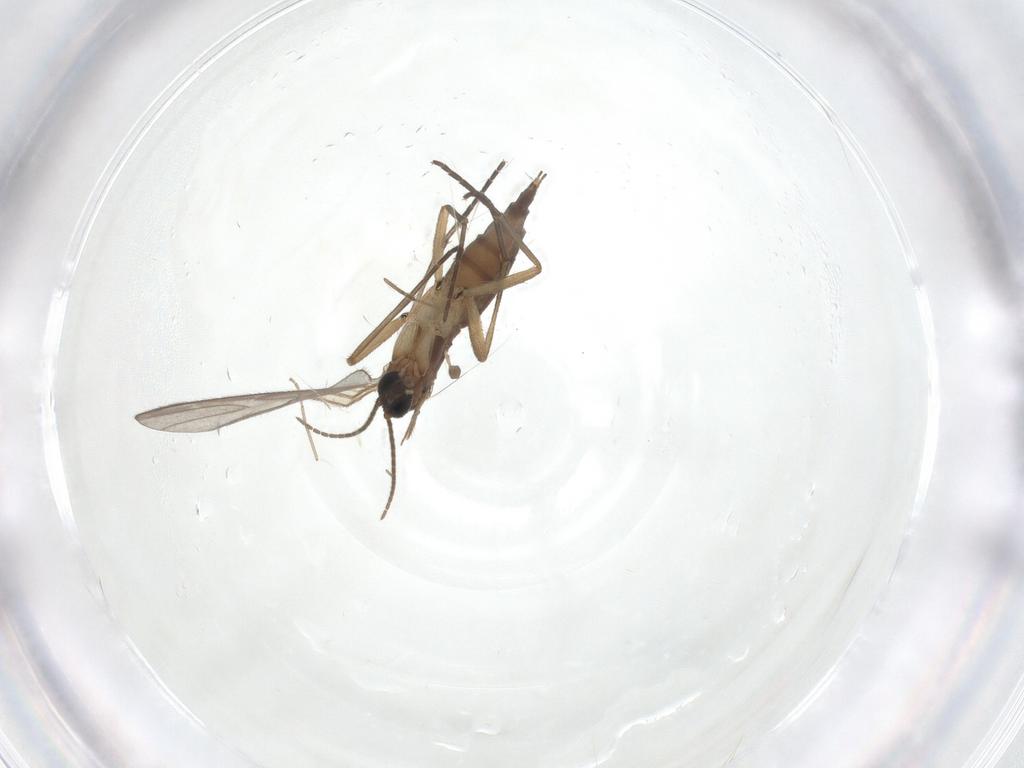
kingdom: Animalia
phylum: Arthropoda
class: Insecta
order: Diptera
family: Sciaridae
